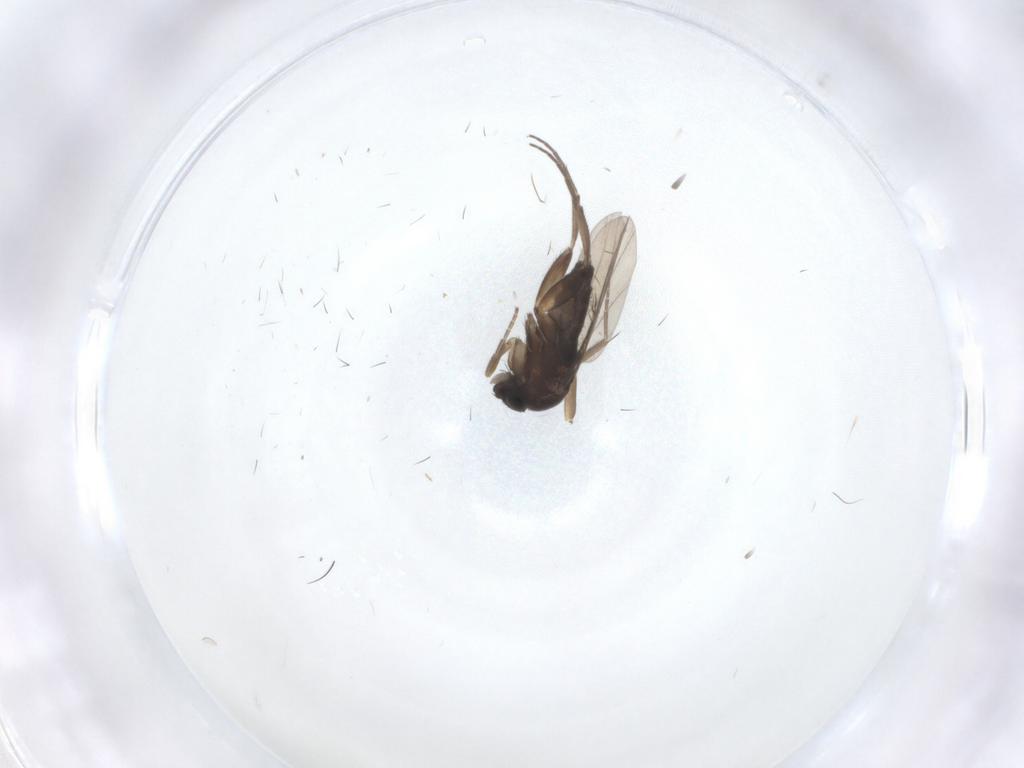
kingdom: Animalia
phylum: Arthropoda
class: Insecta
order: Diptera
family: Phoridae
